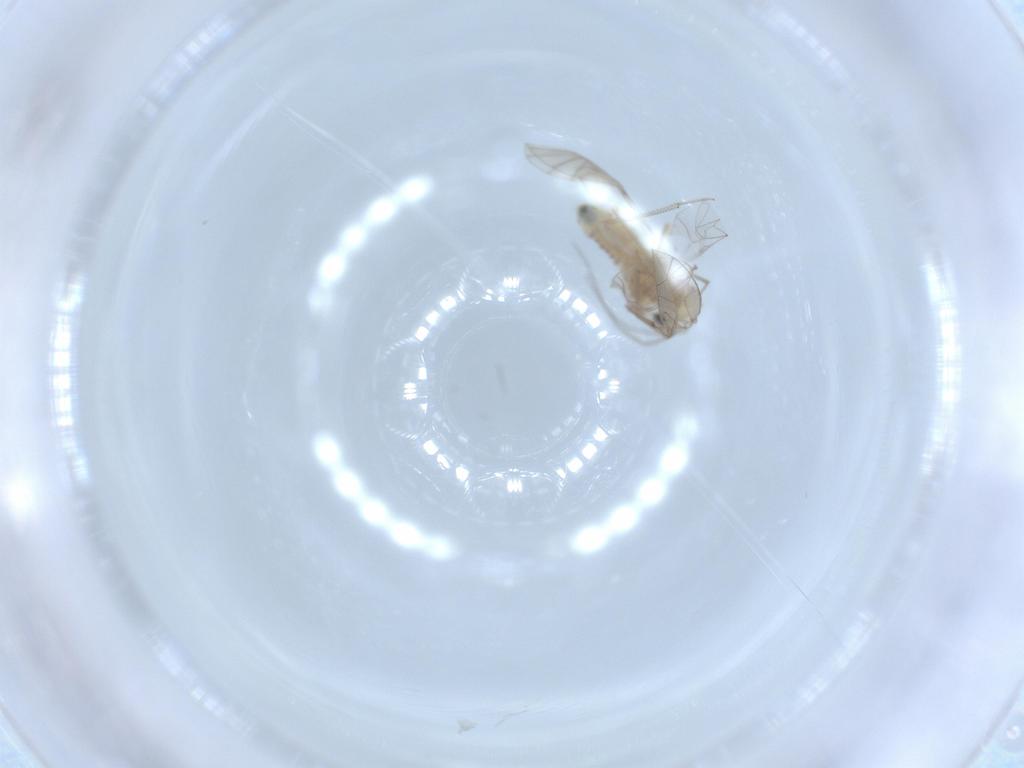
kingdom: Animalia
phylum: Arthropoda
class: Insecta
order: Psocodea
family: Lachesillidae
